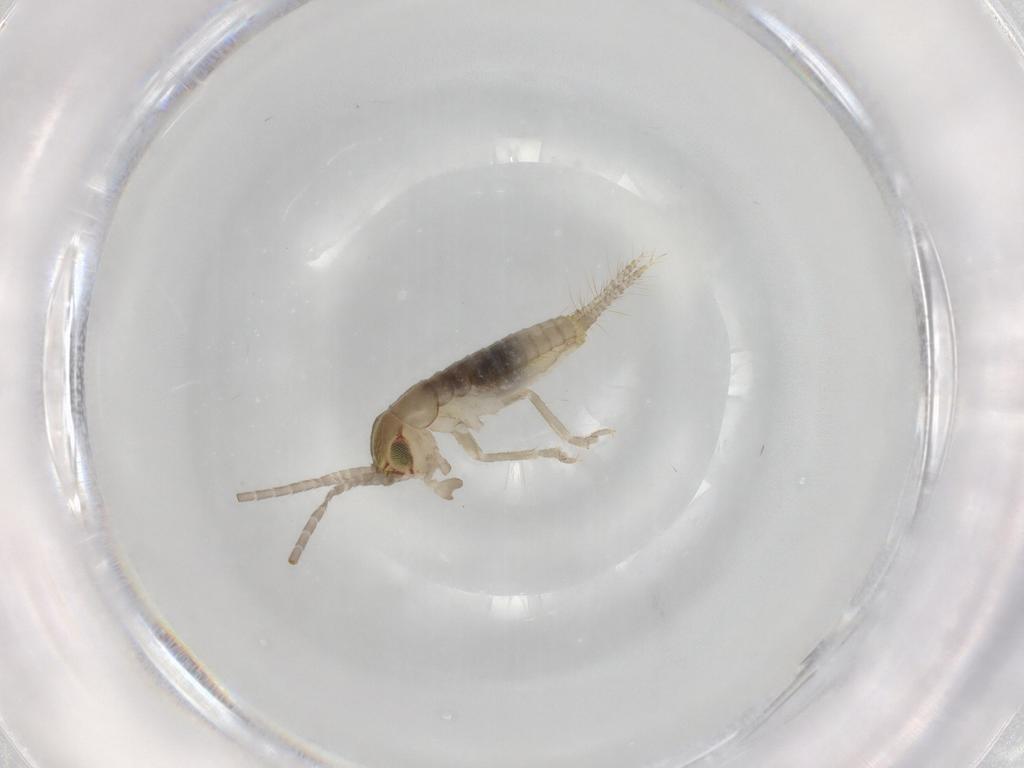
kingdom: Animalia
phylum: Arthropoda
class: Insecta
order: Orthoptera
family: Gryllidae
